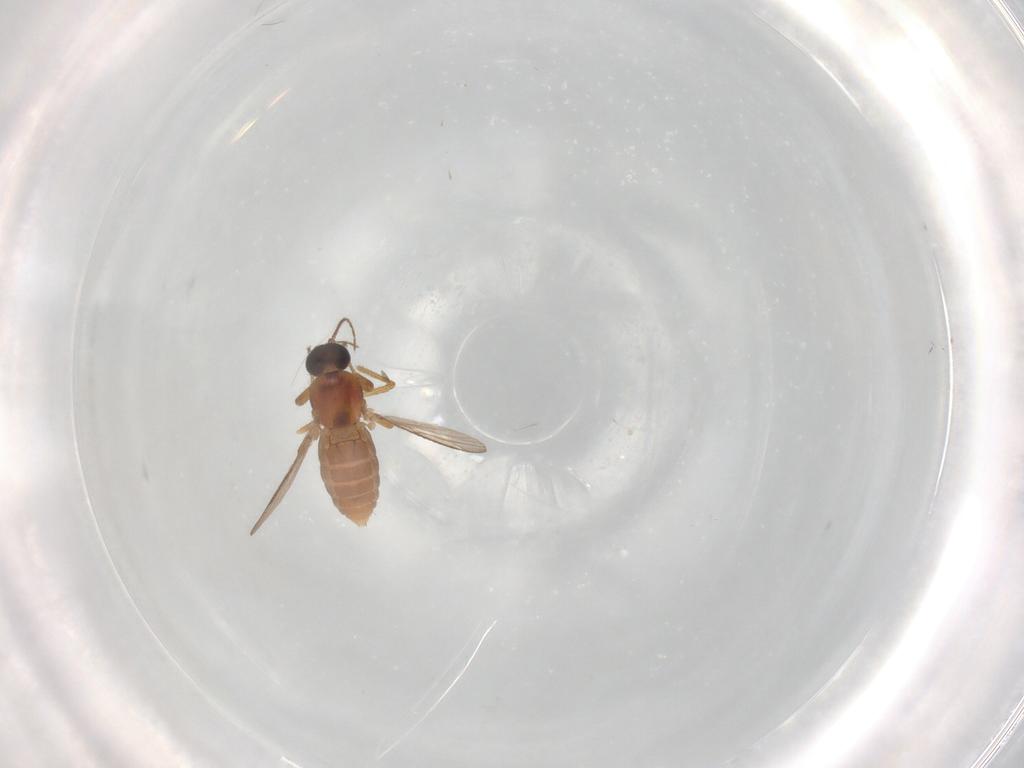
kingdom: Animalia
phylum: Arthropoda
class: Insecta
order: Diptera
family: Ceratopogonidae
